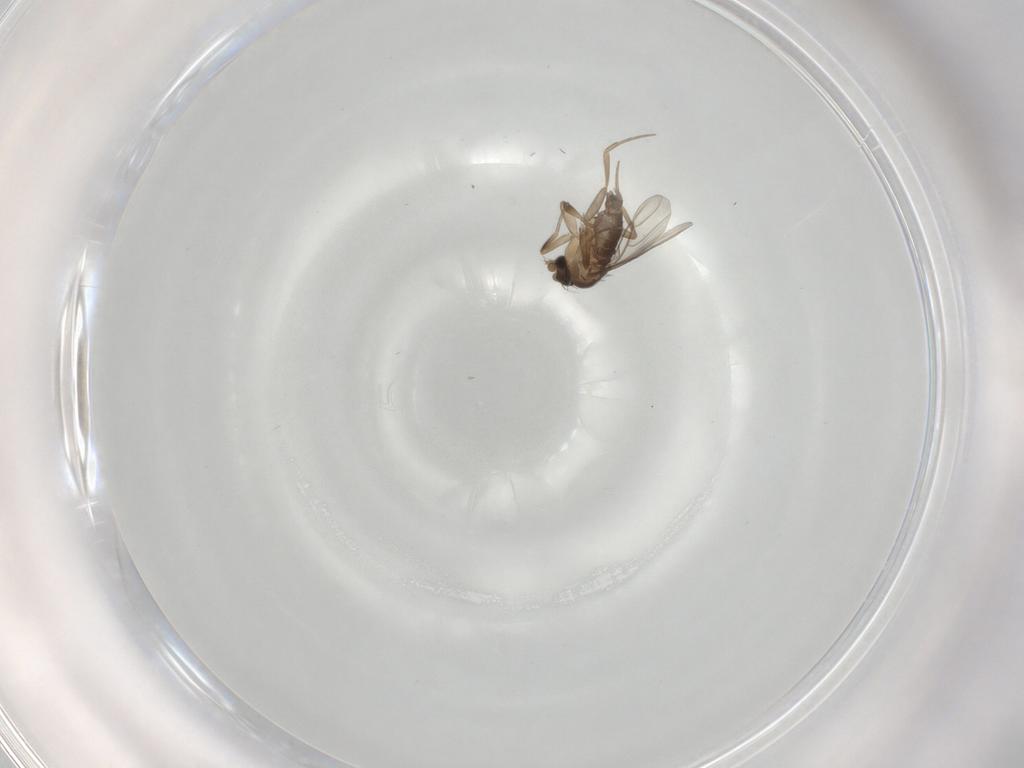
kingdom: Animalia
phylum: Arthropoda
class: Insecta
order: Diptera
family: Phoridae
